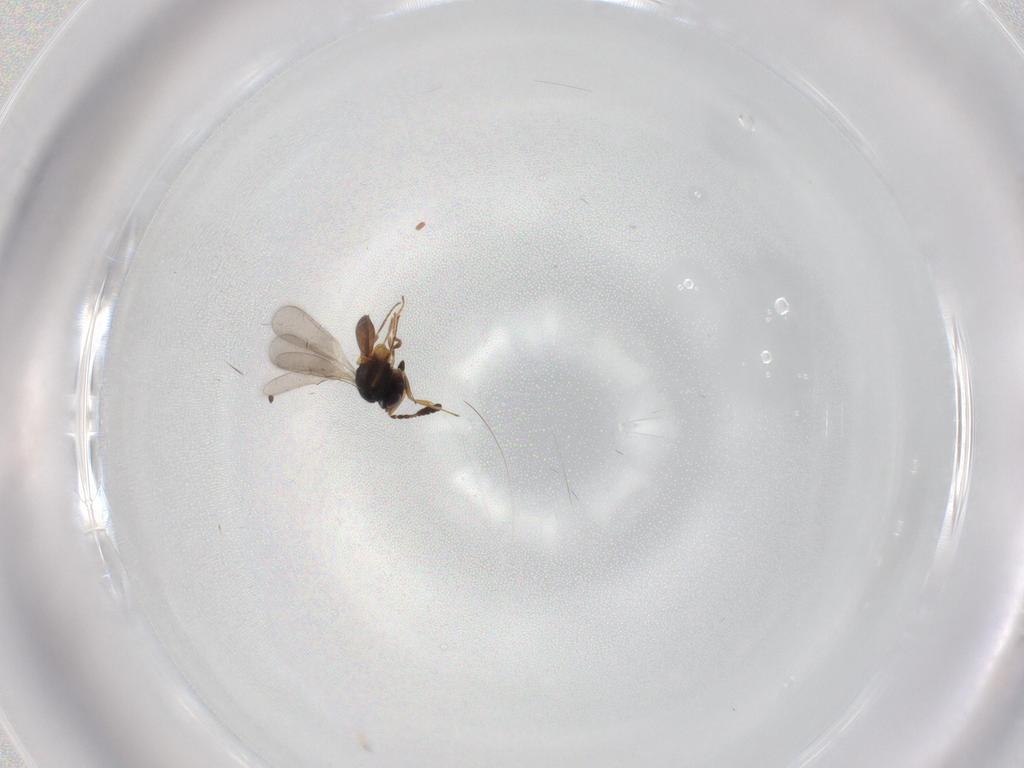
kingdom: Animalia
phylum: Arthropoda
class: Insecta
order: Hymenoptera
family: Scelionidae
